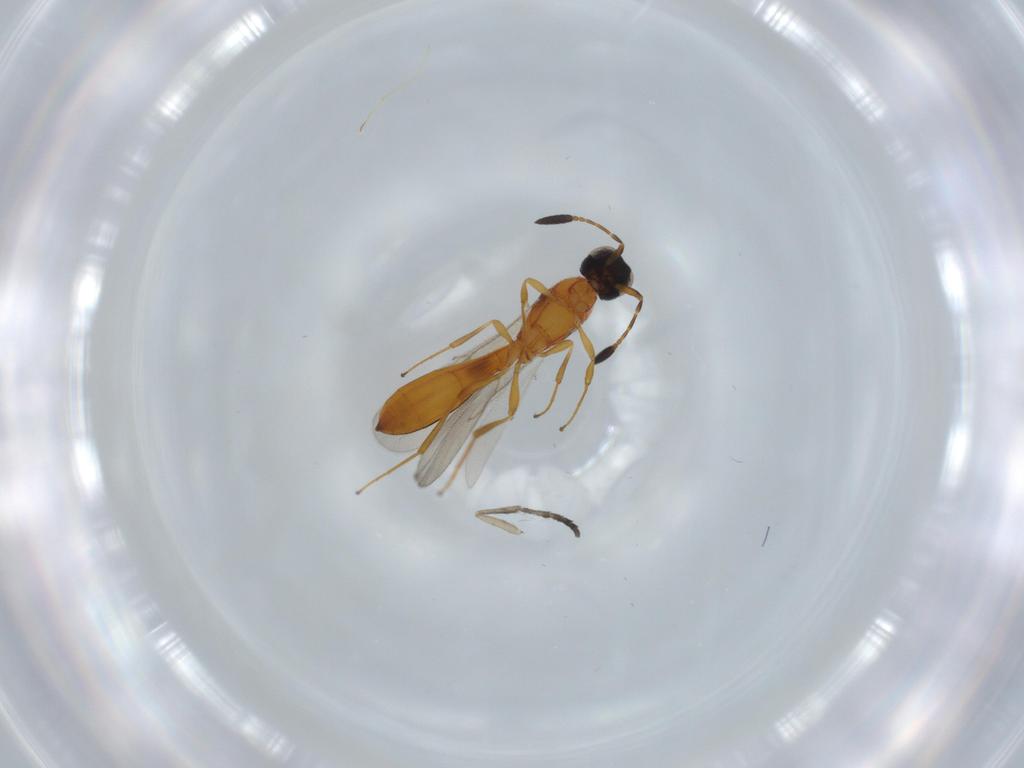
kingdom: Animalia
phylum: Arthropoda
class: Insecta
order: Hymenoptera
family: Scelionidae
